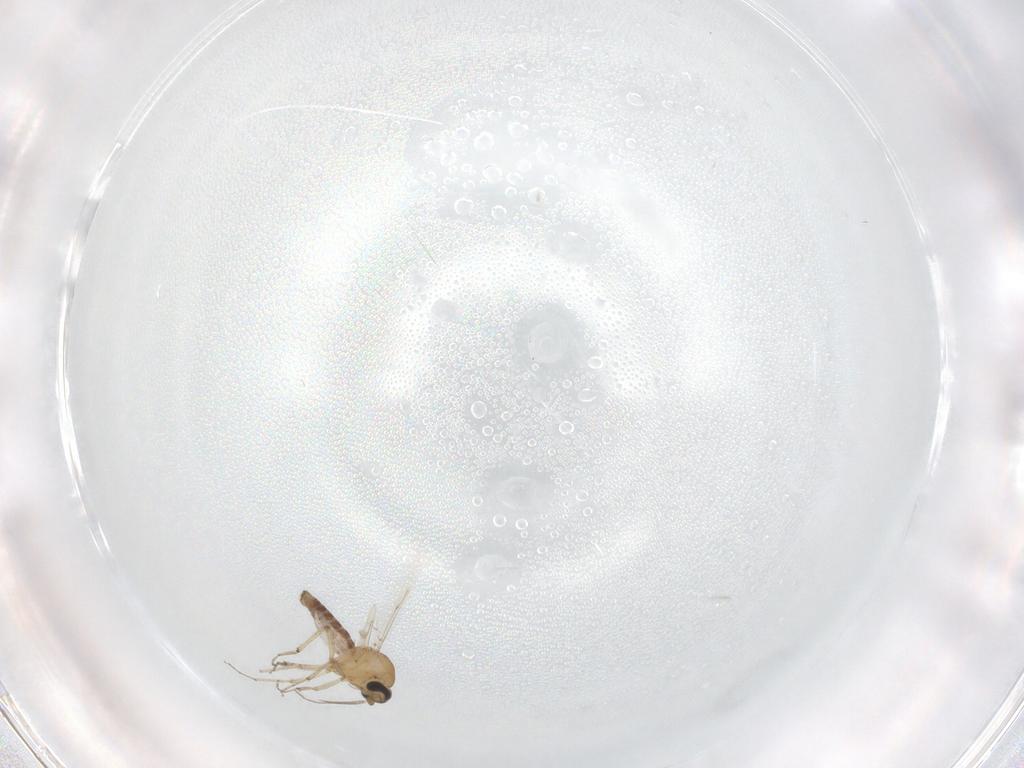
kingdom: Animalia
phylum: Arthropoda
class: Insecta
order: Diptera
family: Ceratopogonidae
